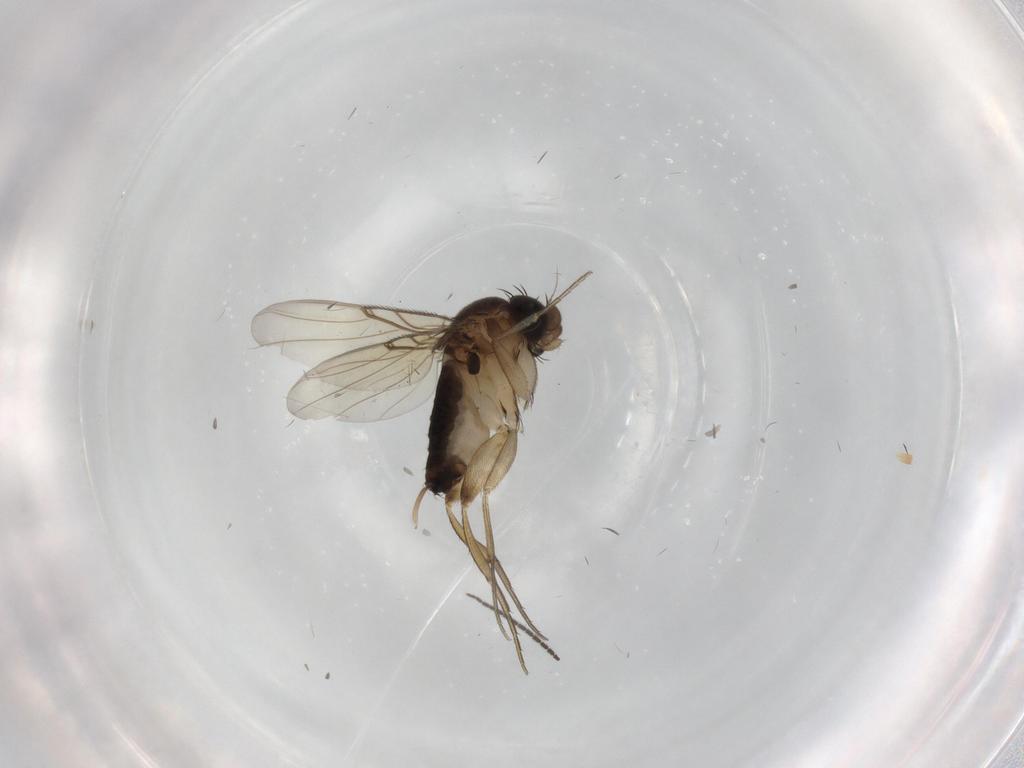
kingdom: Animalia
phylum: Arthropoda
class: Insecta
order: Diptera
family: Phoridae
